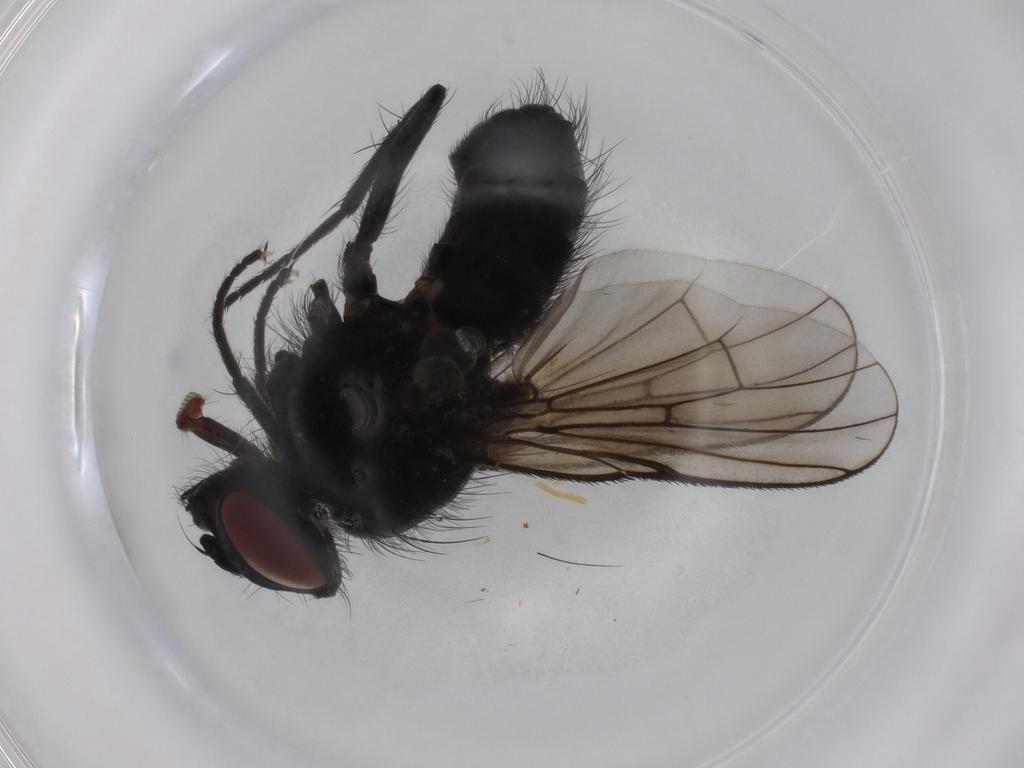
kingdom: Animalia
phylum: Arthropoda
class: Insecta
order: Diptera
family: Muscidae
